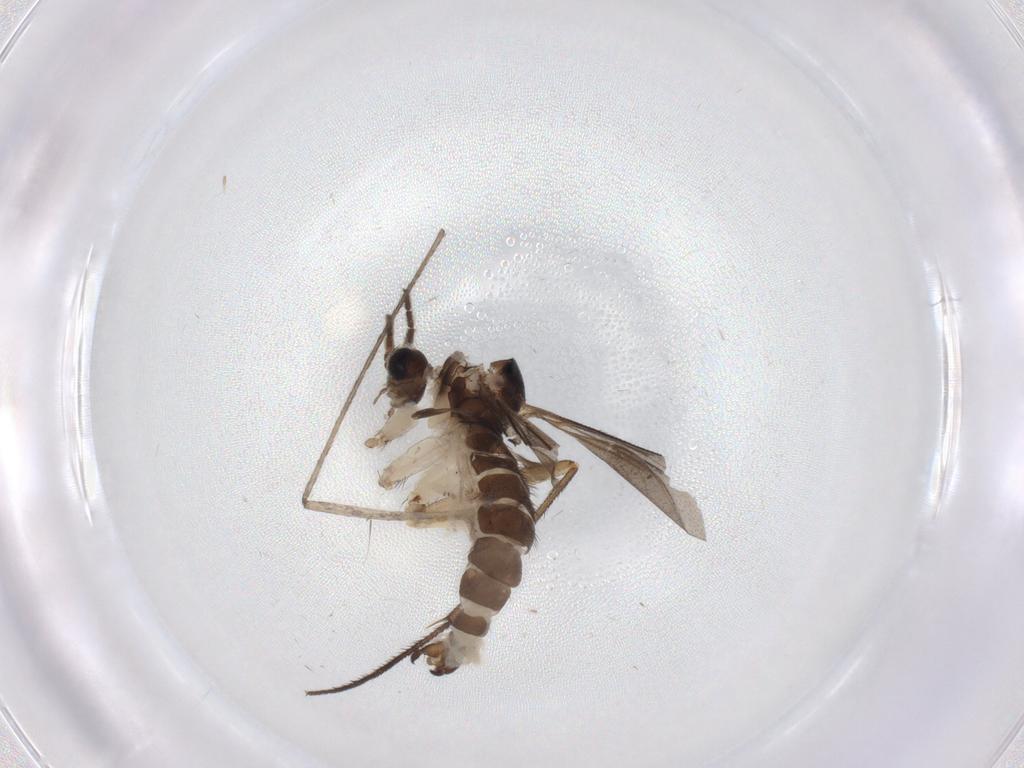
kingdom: Animalia
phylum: Arthropoda
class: Insecta
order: Diptera
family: Sciaridae
